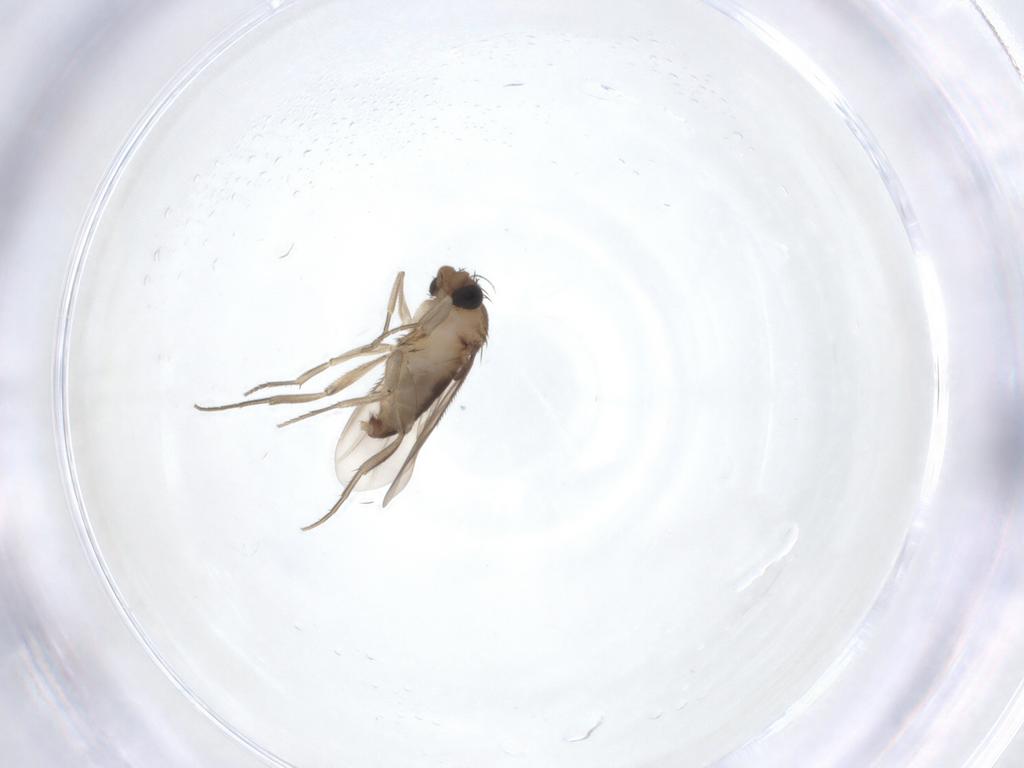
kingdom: Animalia
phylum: Arthropoda
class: Insecta
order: Diptera
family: Phoridae
